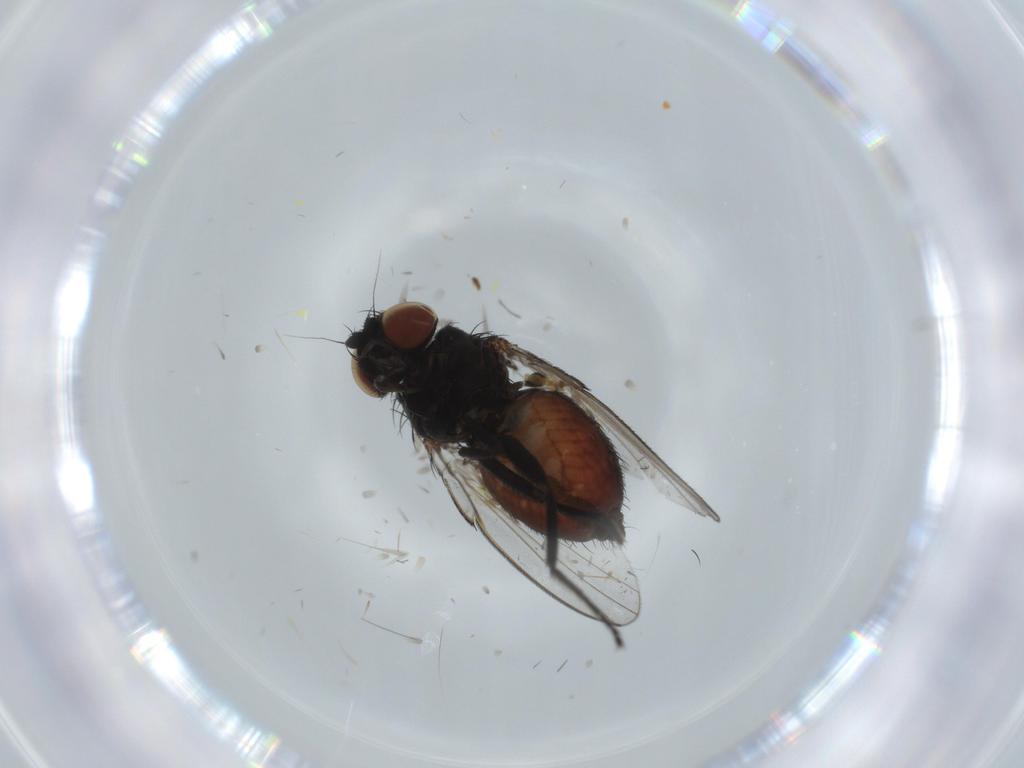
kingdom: Animalia
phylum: Arthropoda
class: Insecta
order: Diptera
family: Milichiidae
